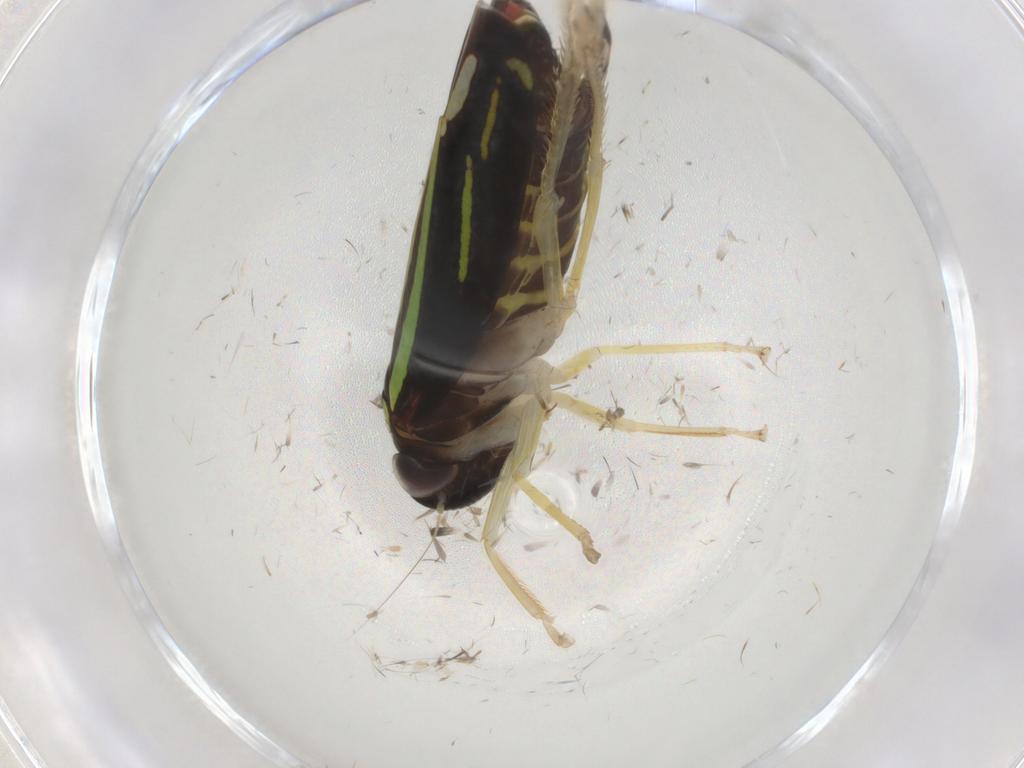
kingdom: Animalia
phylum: Arthropoda
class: Insecta
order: Hemiptera
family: Cicadellidae
